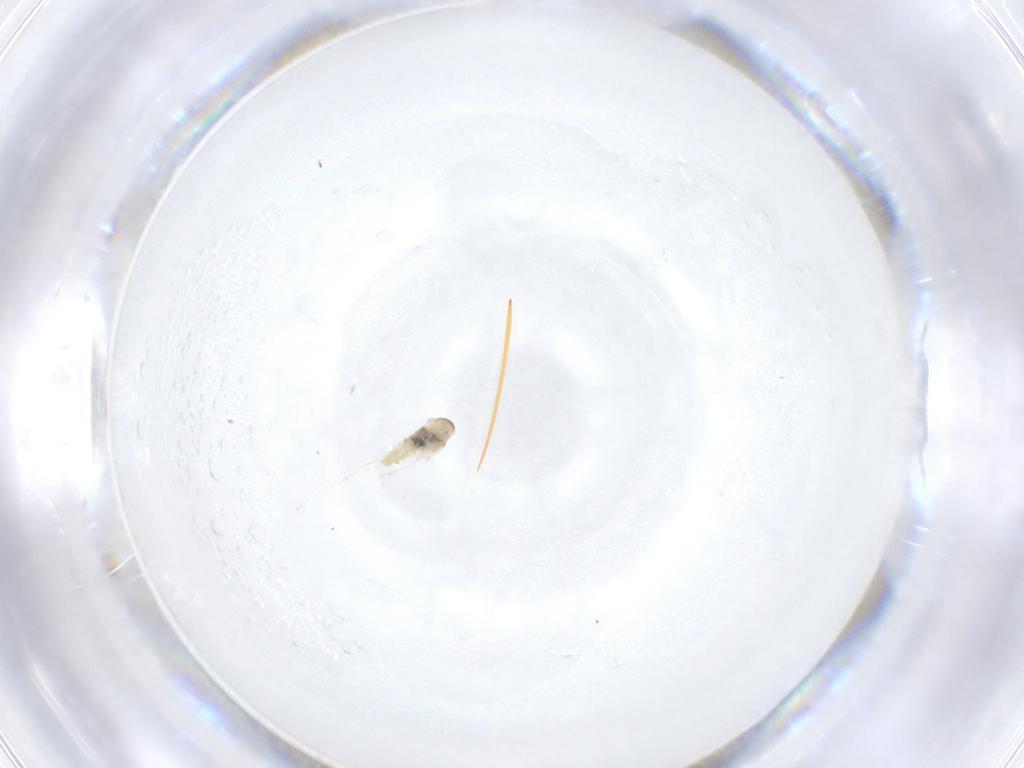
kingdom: Animalia
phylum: Arthropoda
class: Insecta
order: Diptera
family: Cecidomyiidae
